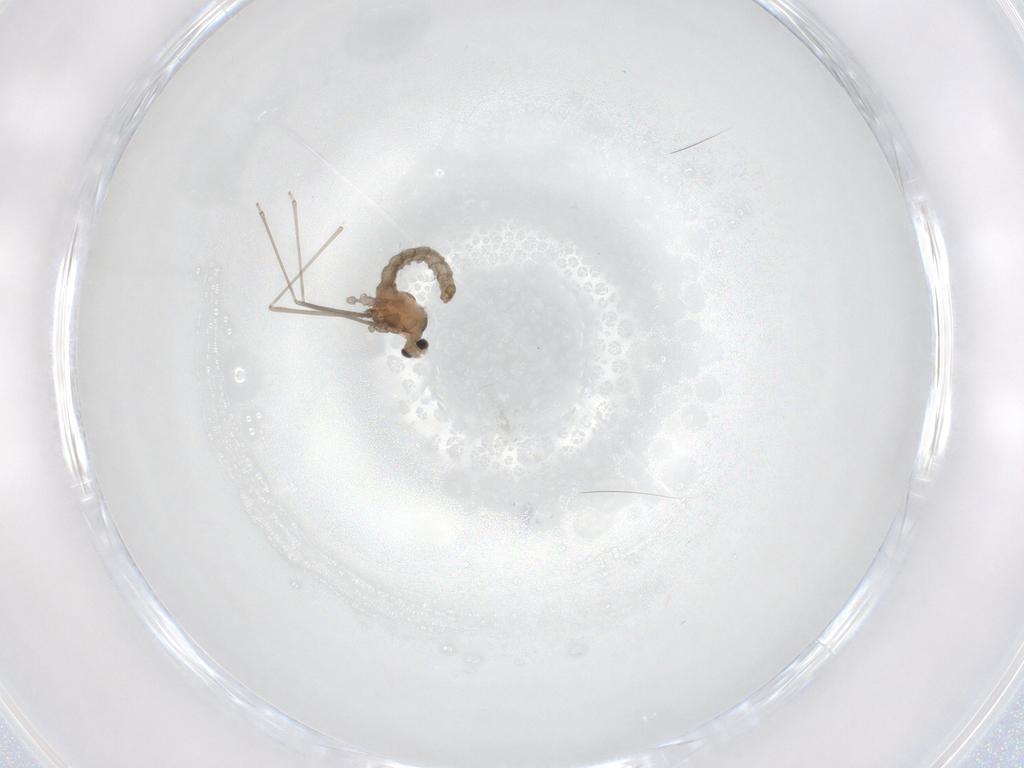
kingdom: Animalia
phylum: Arthropoda
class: Insecta
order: Diptera
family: Cecidomyiidae
